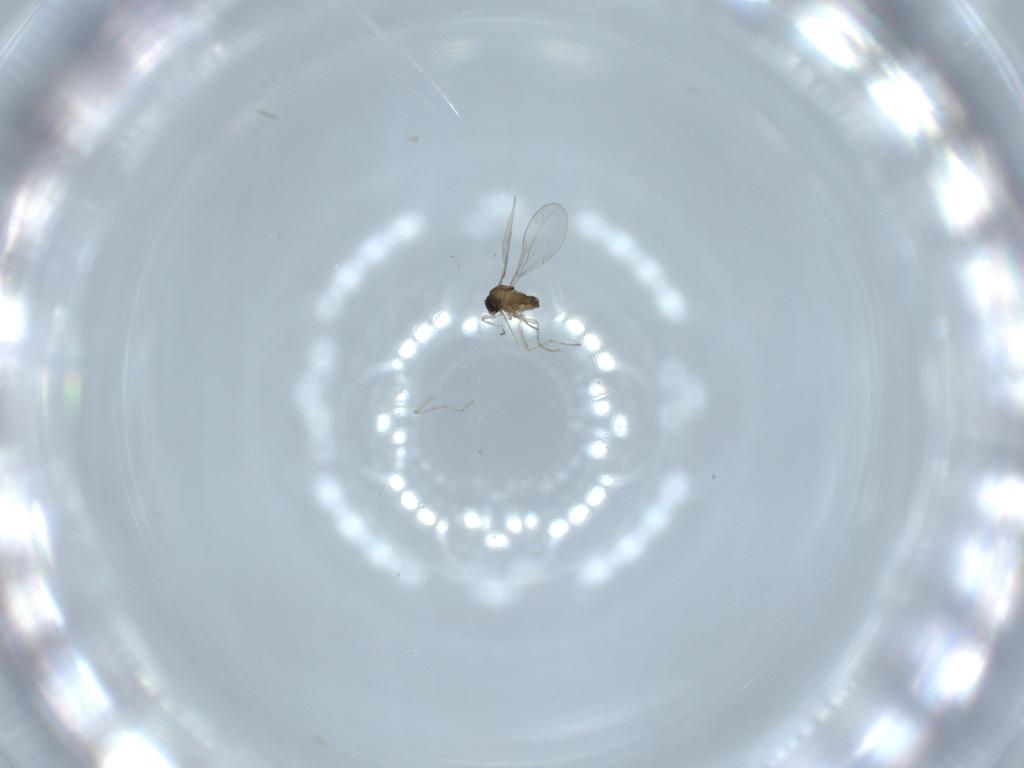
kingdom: Animalia
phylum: Arthropoda
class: Insecta
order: Diptera
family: Cecidomyiidae
